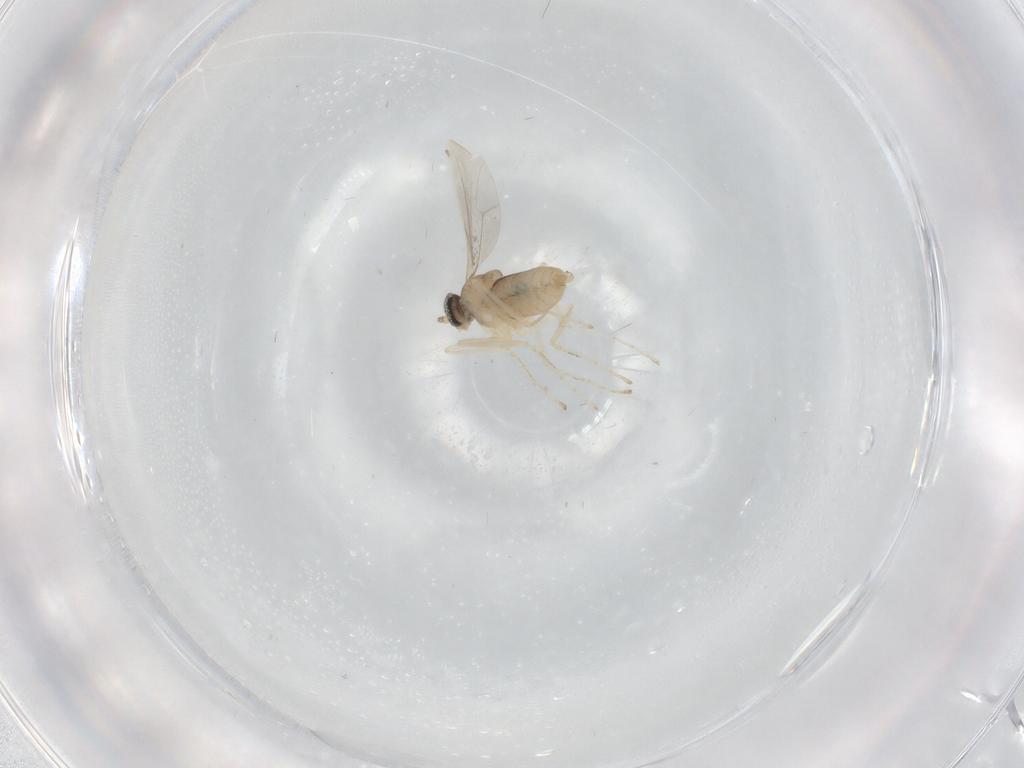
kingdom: Animalia
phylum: Arthropoda
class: Insecta
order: Diptera
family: Cecidomyiidae
